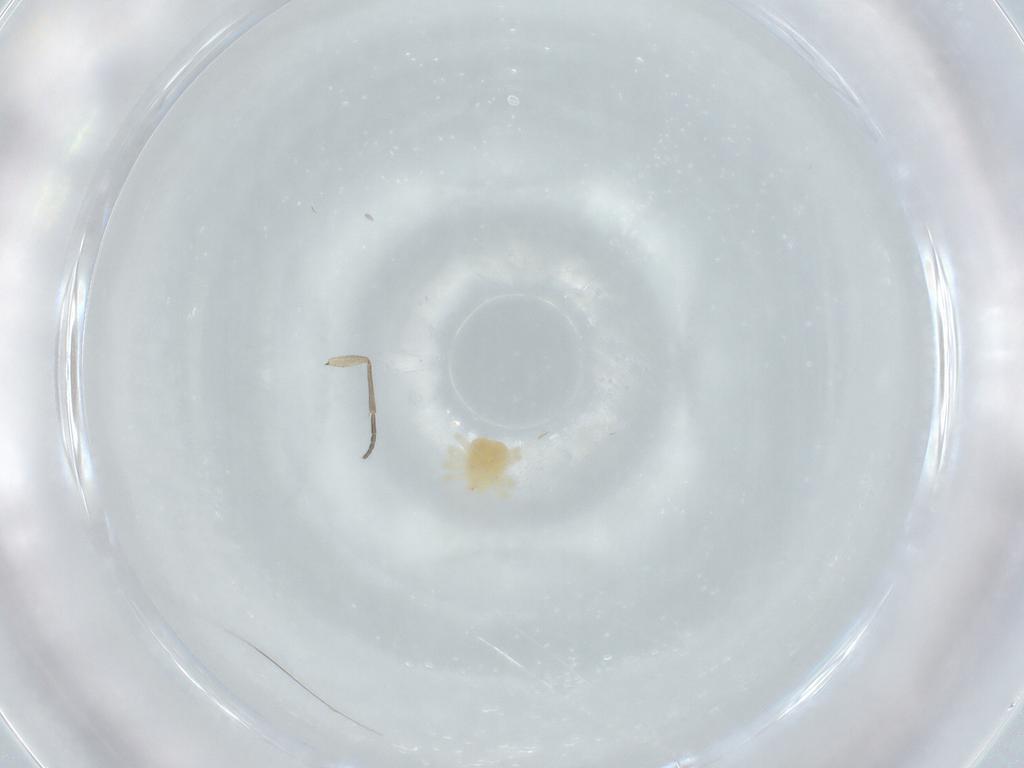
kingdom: Animalia
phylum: Arthropoda
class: Arachnida
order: Trombidiformes
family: Anystidae
